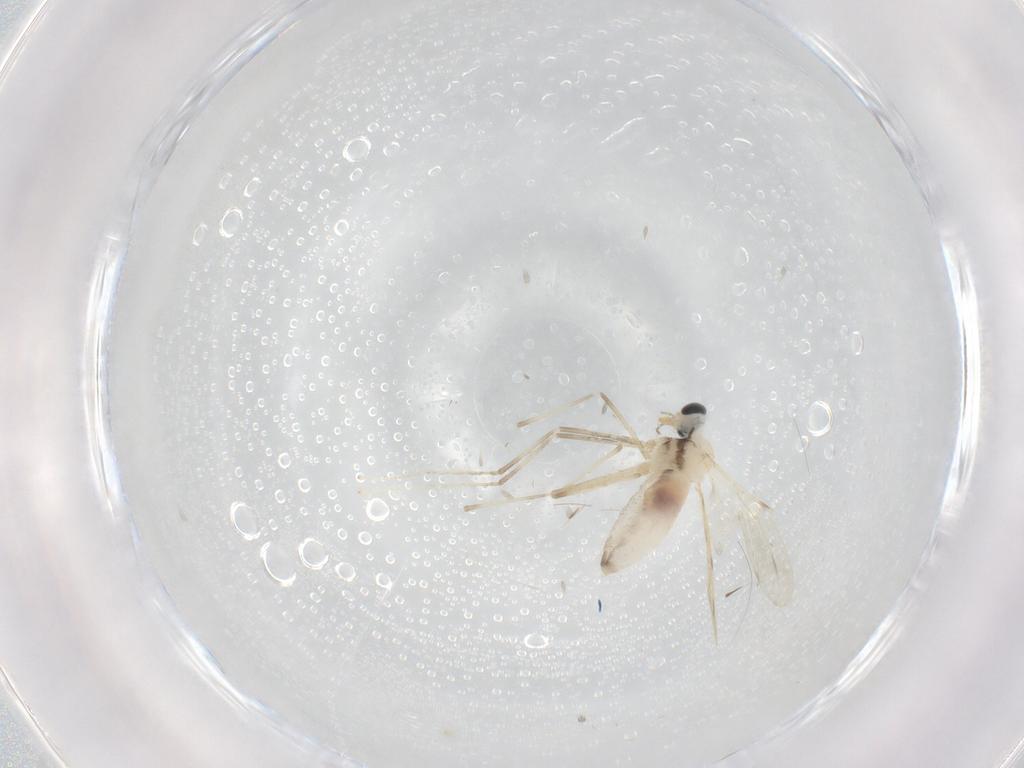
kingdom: Animalia
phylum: Arthropoda
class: Insecta
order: Diptera
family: Chironomidae
